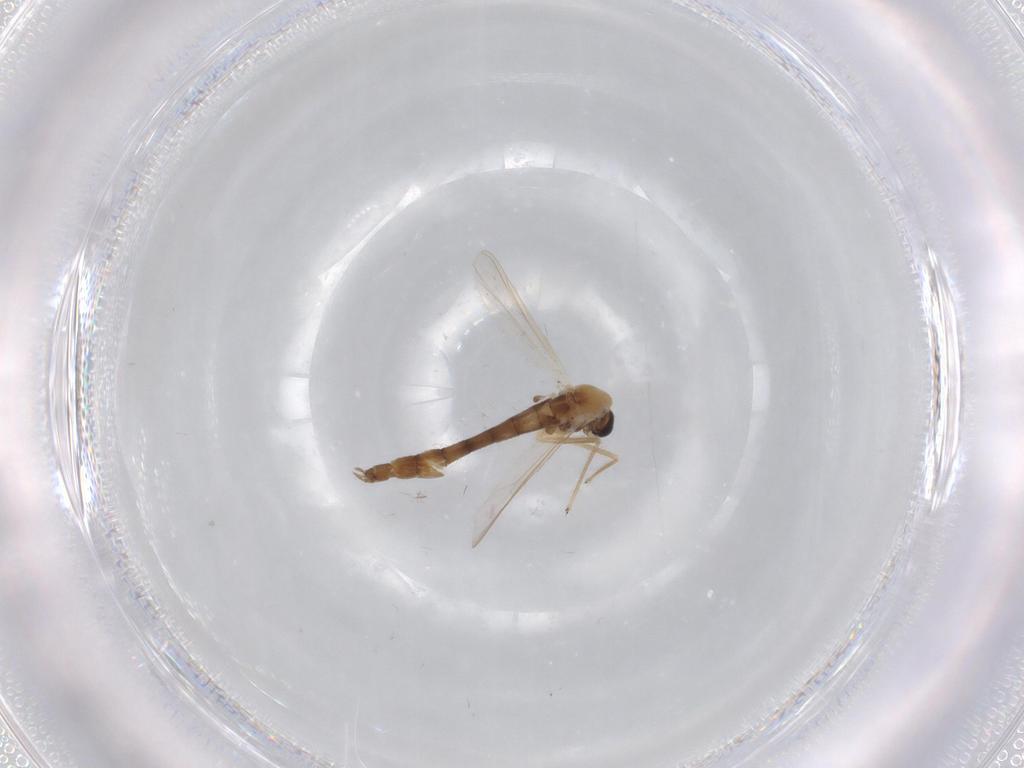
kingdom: Animalia
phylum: Arthropoda
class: Insecta
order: Diptera
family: Chironomidae
